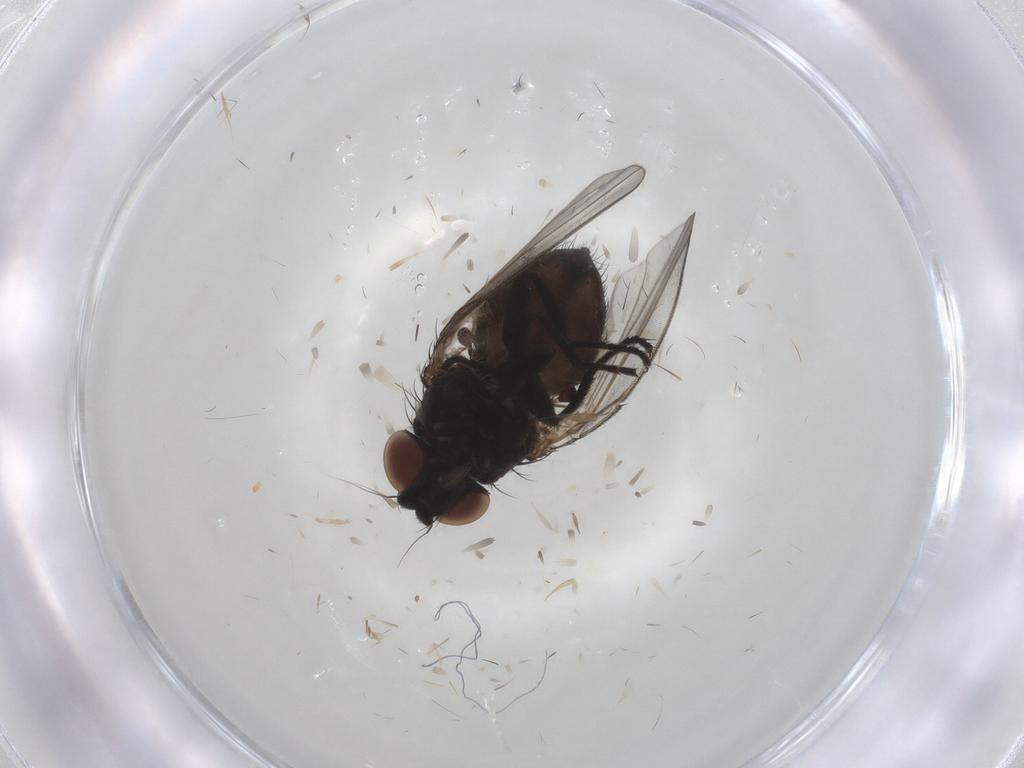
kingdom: Animalia
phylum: Arthropoda
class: Insecta
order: Diptera
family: Milichiidae
